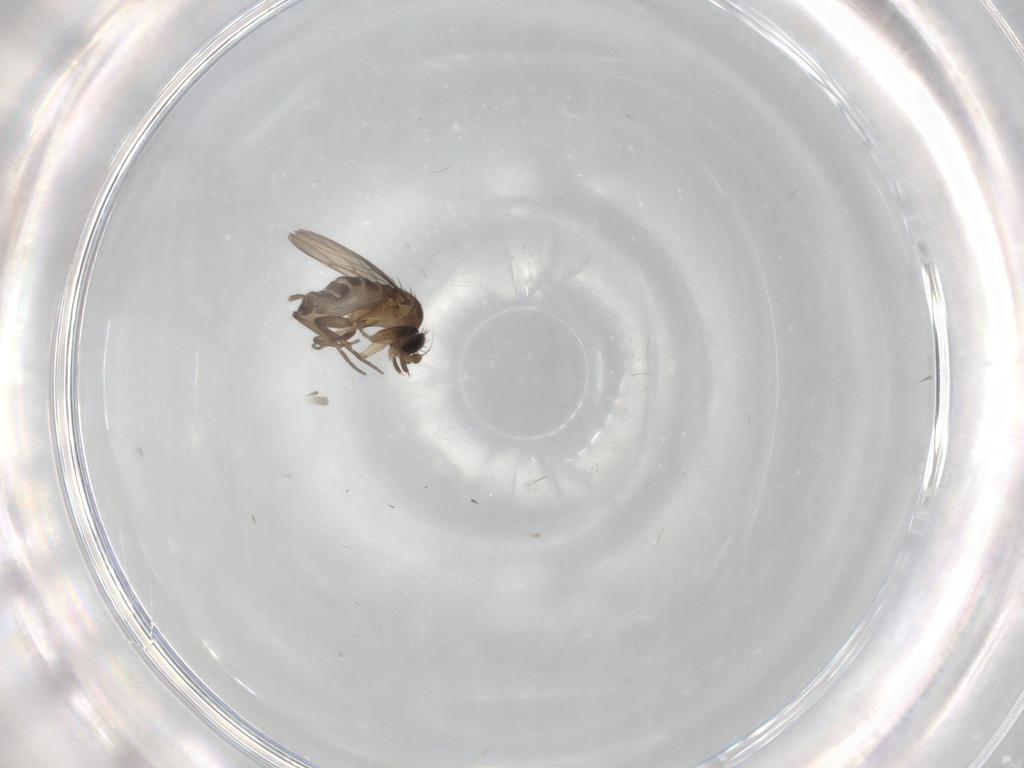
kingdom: Animalia
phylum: Arthropoda
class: Insecta
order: Diptera
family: Phoridae
